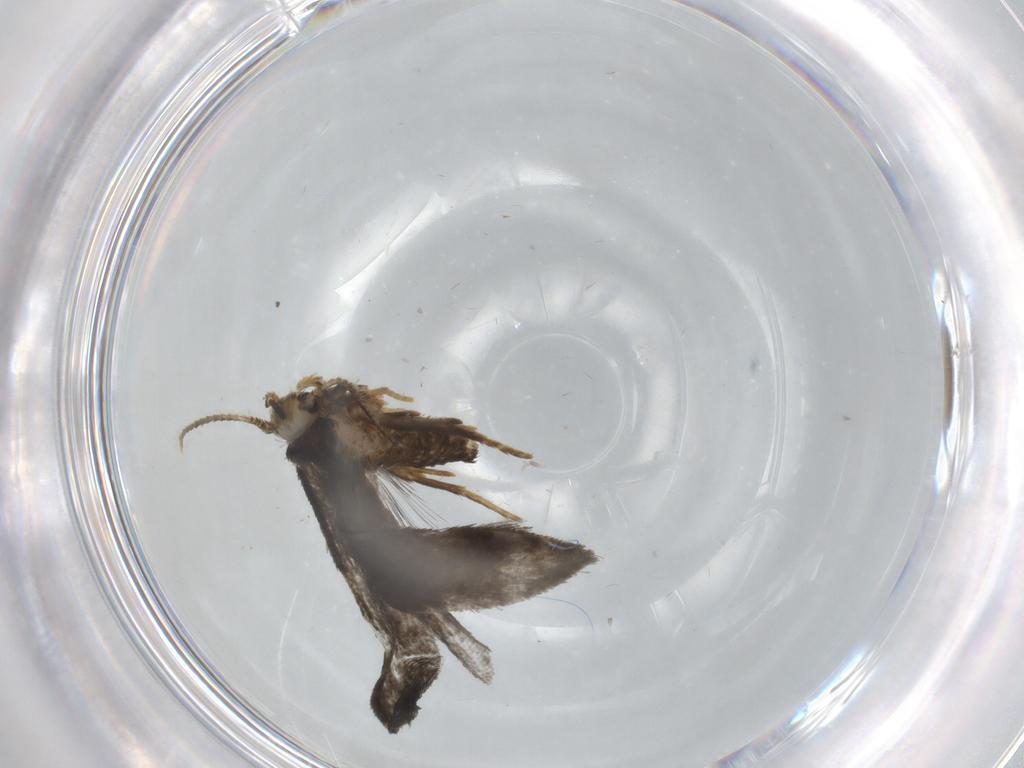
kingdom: Animalia
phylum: Arthropoda
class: Insecta
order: Lepidoptera
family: Psychidae
